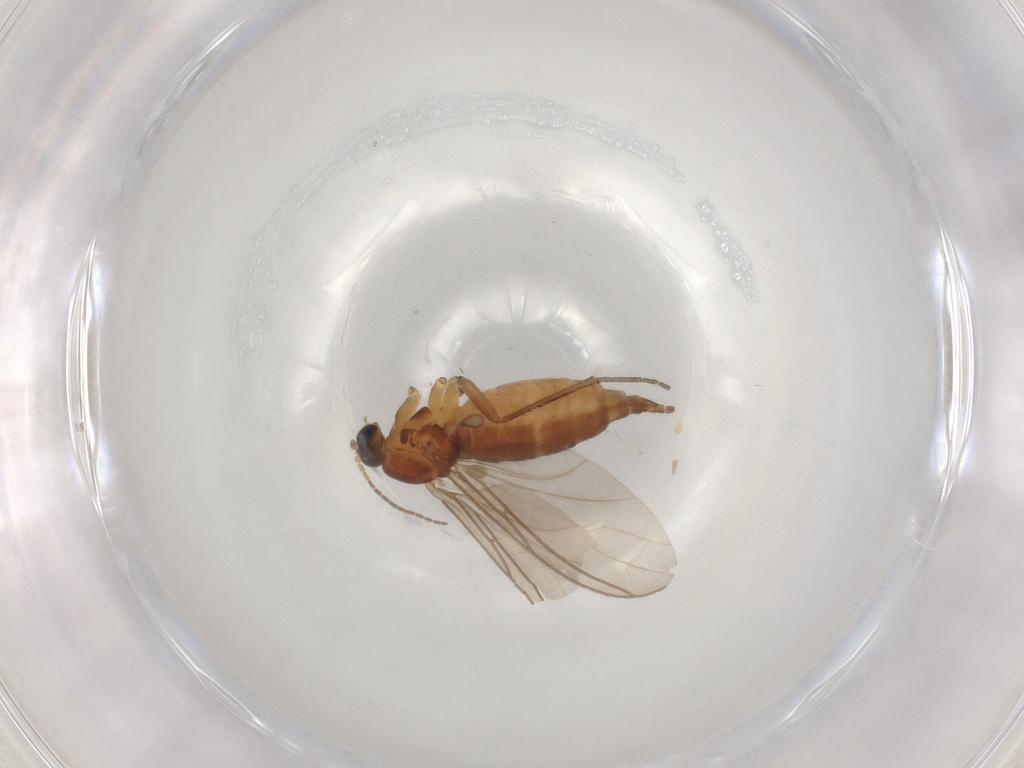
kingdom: Animalia
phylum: Arthropoda
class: Insecta
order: Diptera
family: Sciaridae
